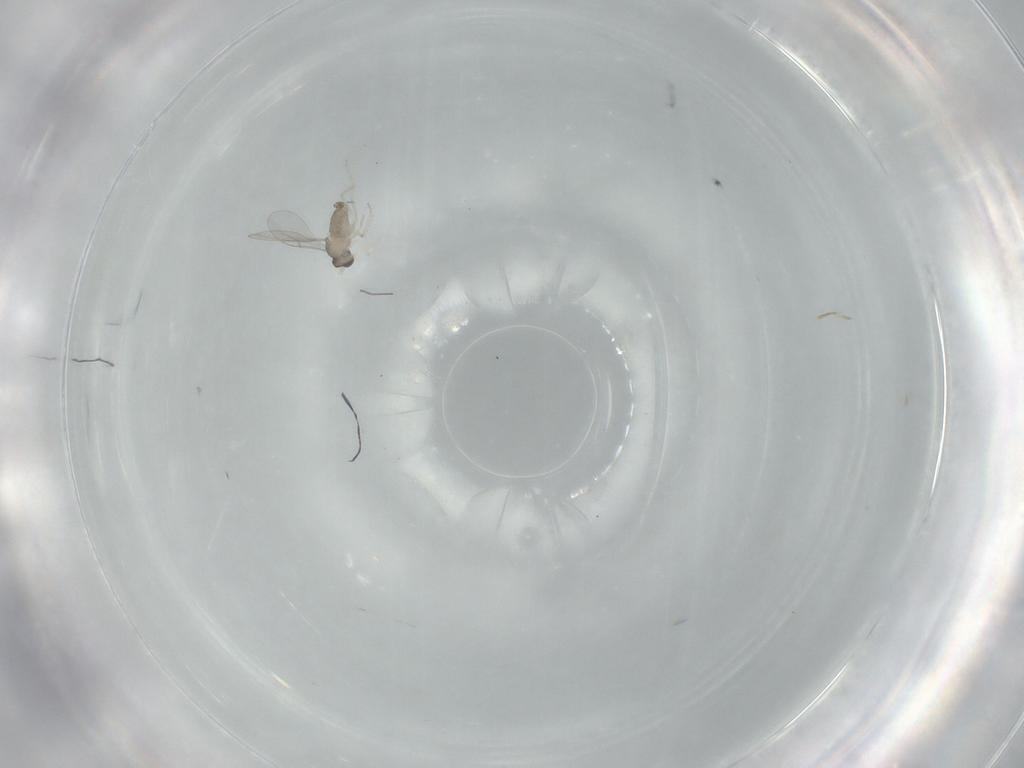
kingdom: Animalia
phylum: Arthropoda
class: Insecta
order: Diptera
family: Cecidomyiidae
